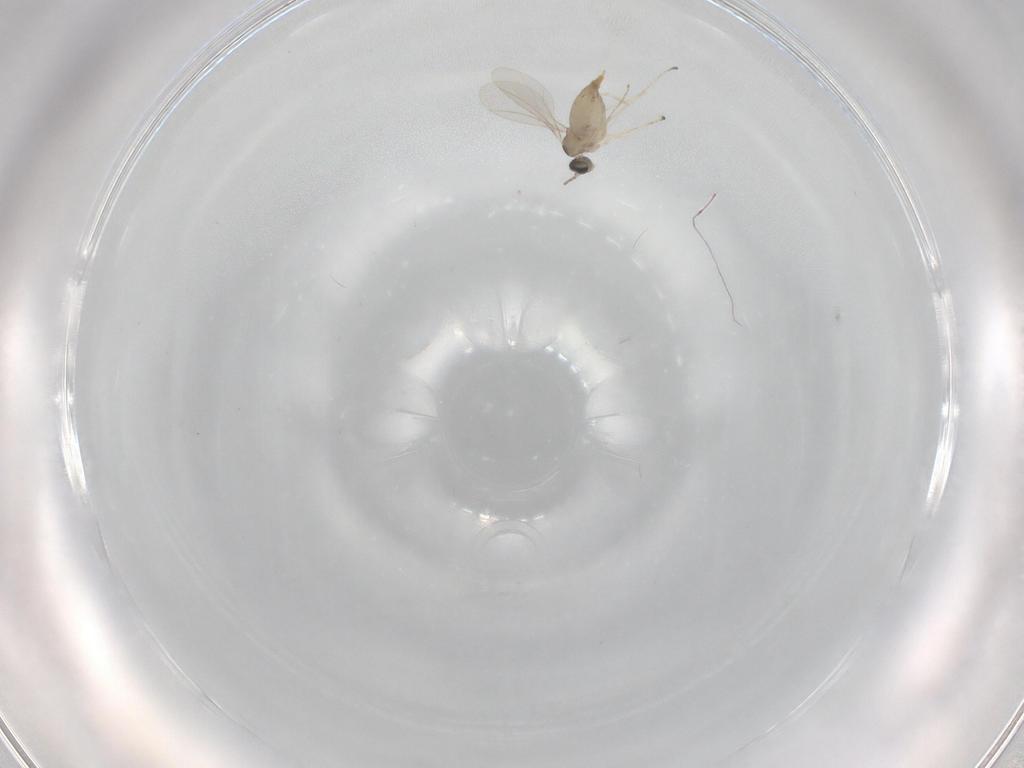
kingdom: Animalia
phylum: Arthropoda
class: Insecta
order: Diptera
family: Cecidomyiidae
